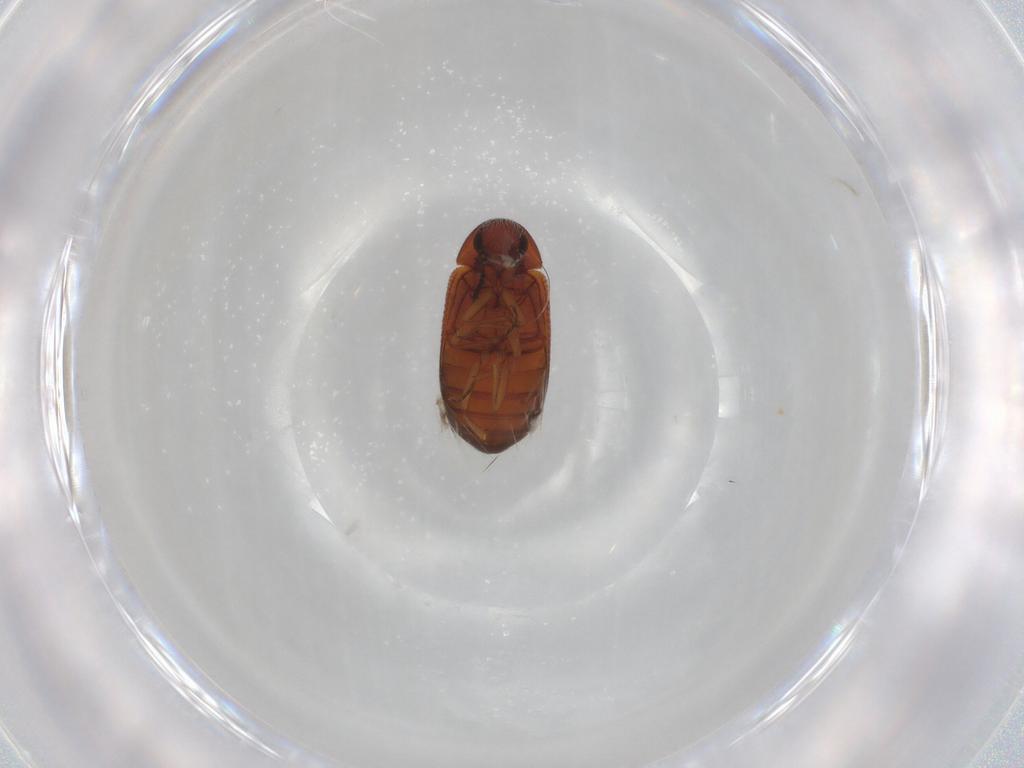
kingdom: Animalia
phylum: Arthropoda
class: Insecta
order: Coleoptera
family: Rhadalidae
